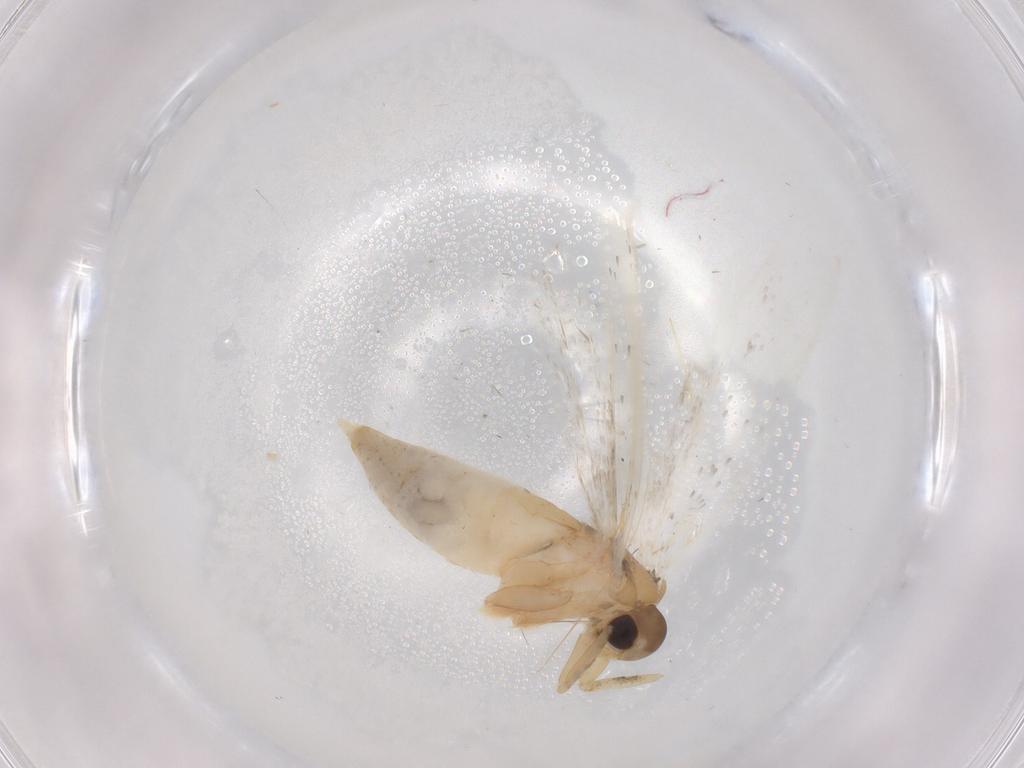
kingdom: Animalia
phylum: Arthropoda
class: Insecta
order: Lepidoptera
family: Autostichidae
